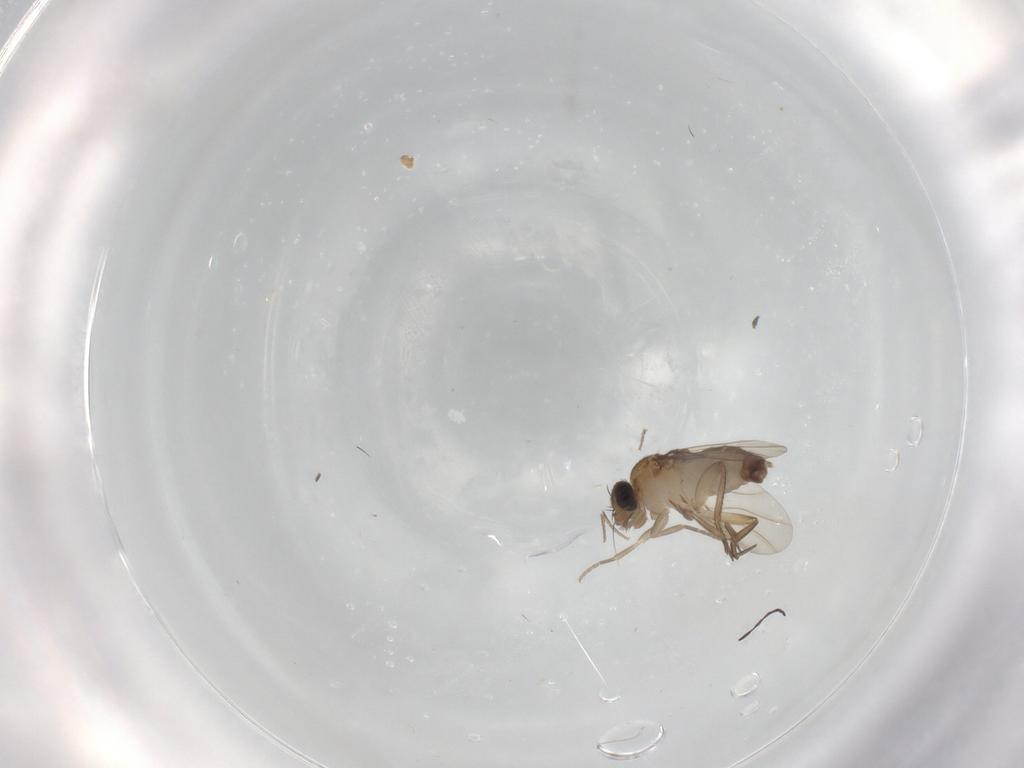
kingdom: Animalia
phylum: Arthropoda
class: Insecta
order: Diptera
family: Phoridae
